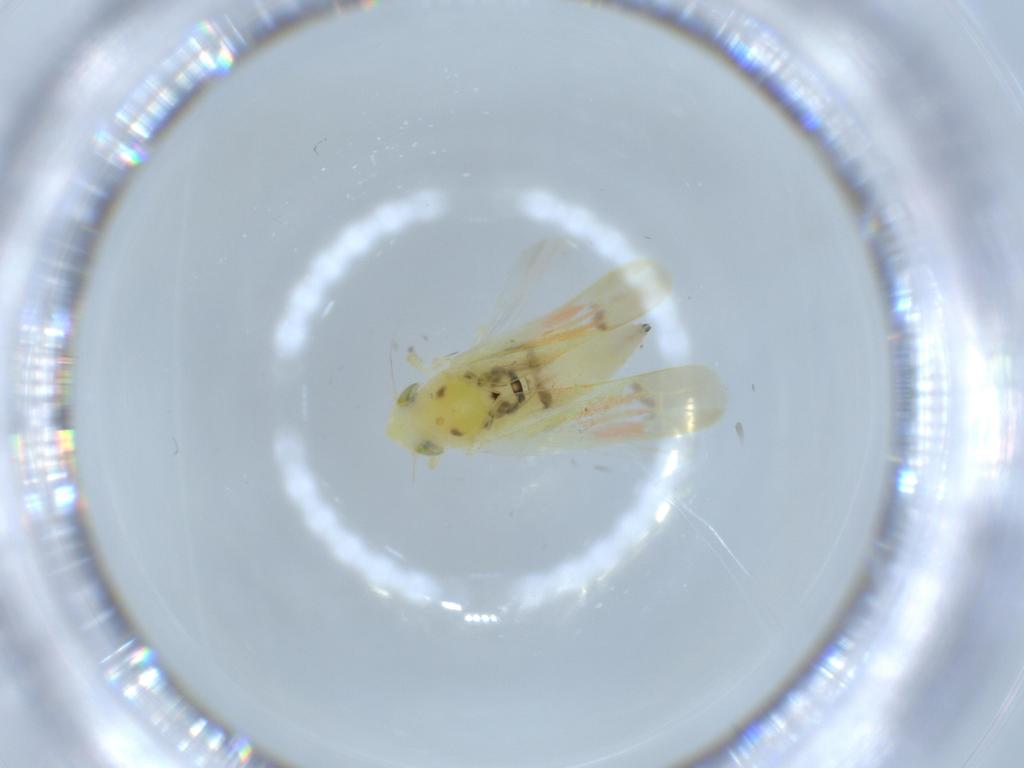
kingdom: Animalia
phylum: Arthropoda
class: Insecta
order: Hemiptera
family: Cicadellidae
